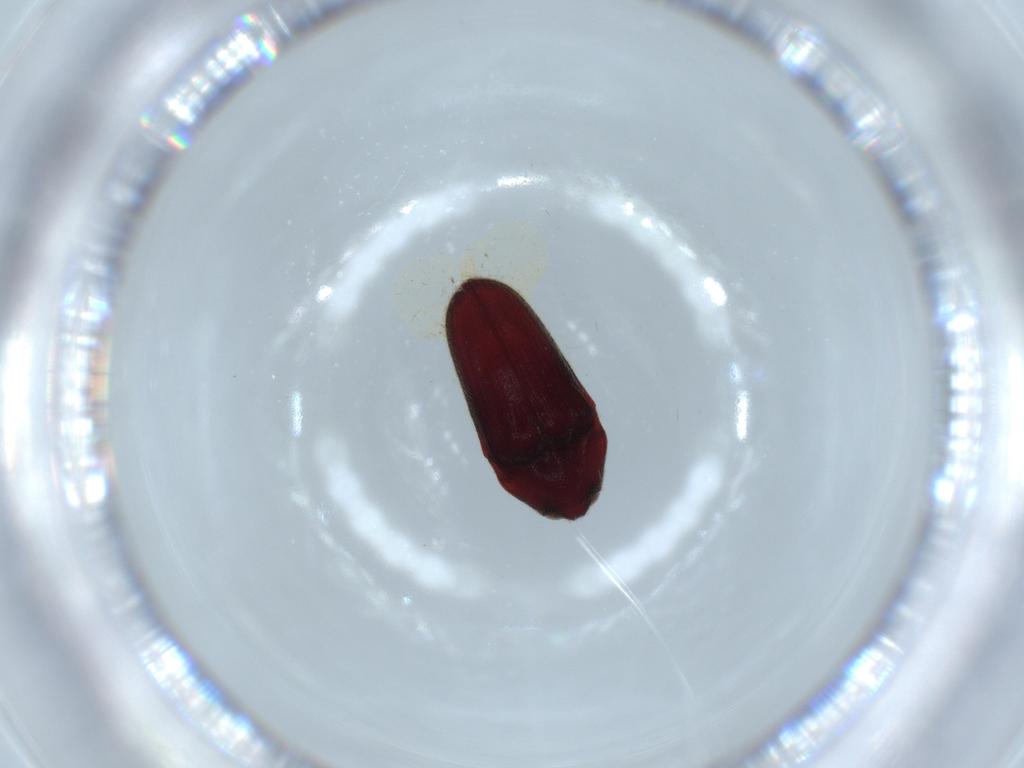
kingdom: Animalia
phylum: Arthropoda
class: Insecta
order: Coleoptera
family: Throscidae
